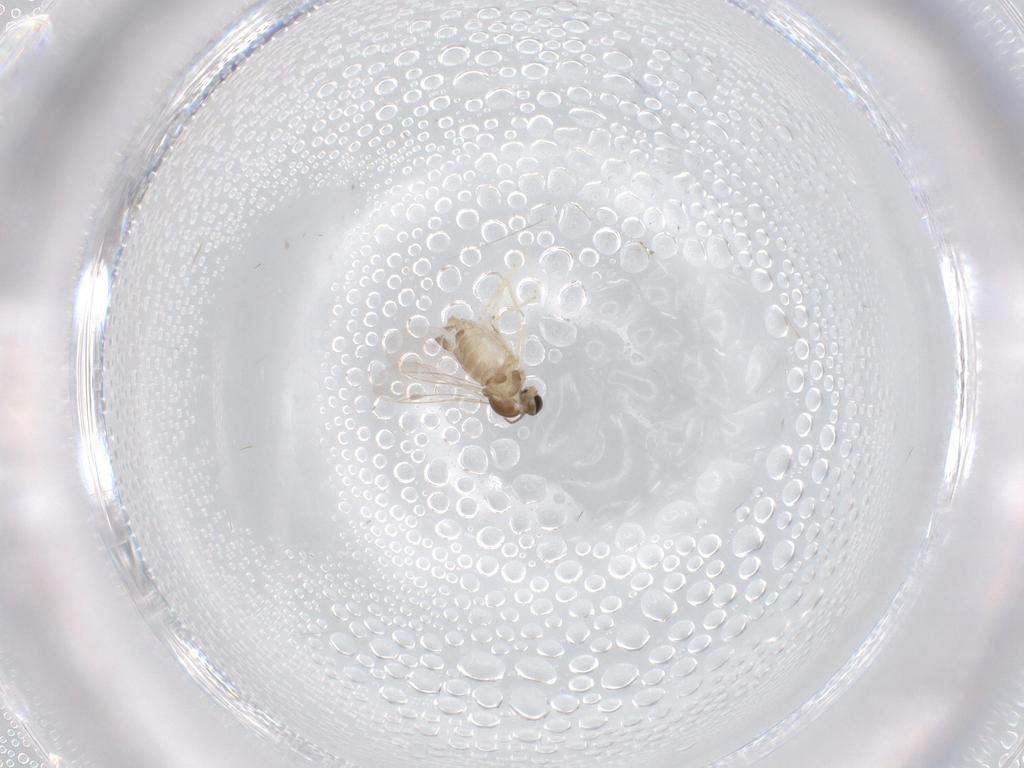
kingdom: Animalia
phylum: Arthropoda
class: Insecta
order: Diptera
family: Cecidomyiidae
